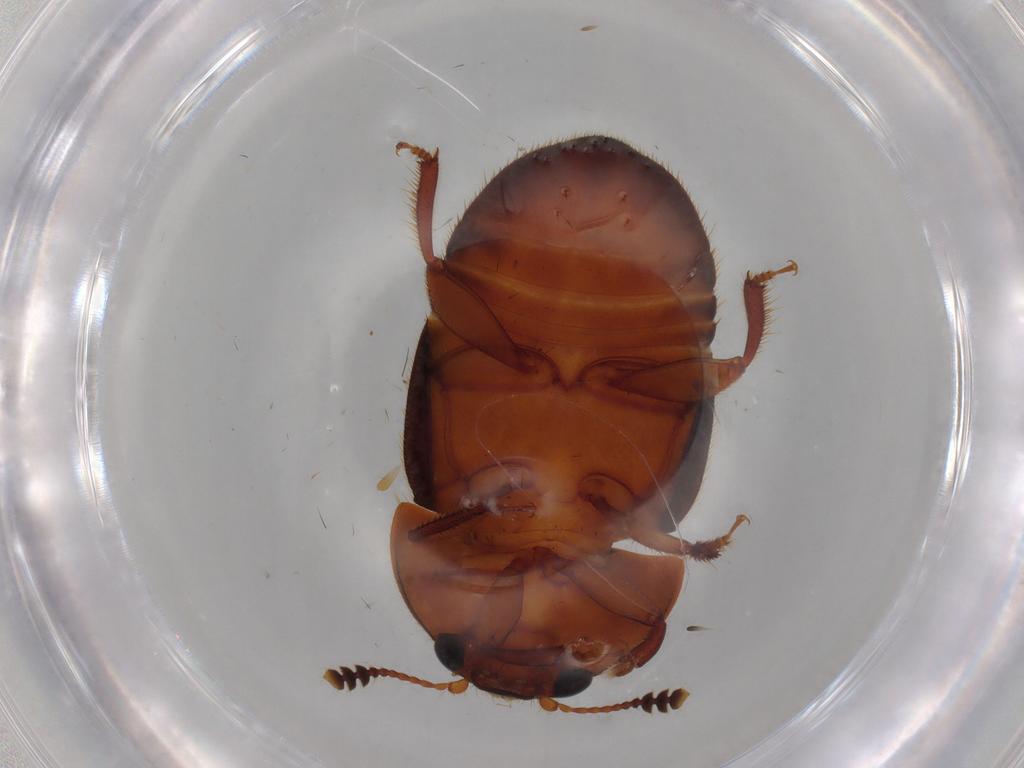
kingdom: Animalia
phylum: Arthropoda
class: Insecta
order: Coleoptera
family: Nitidulidae
